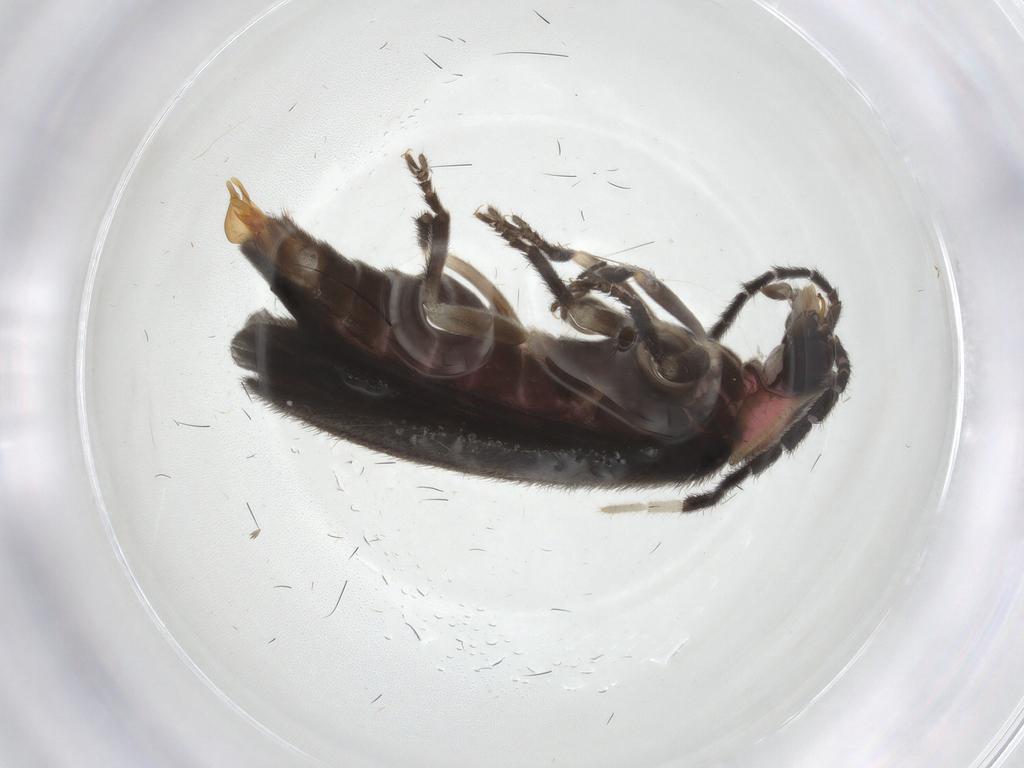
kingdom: Animalia
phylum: Arthropoda
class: Insecta
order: Coleoptera
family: Lampyridae
